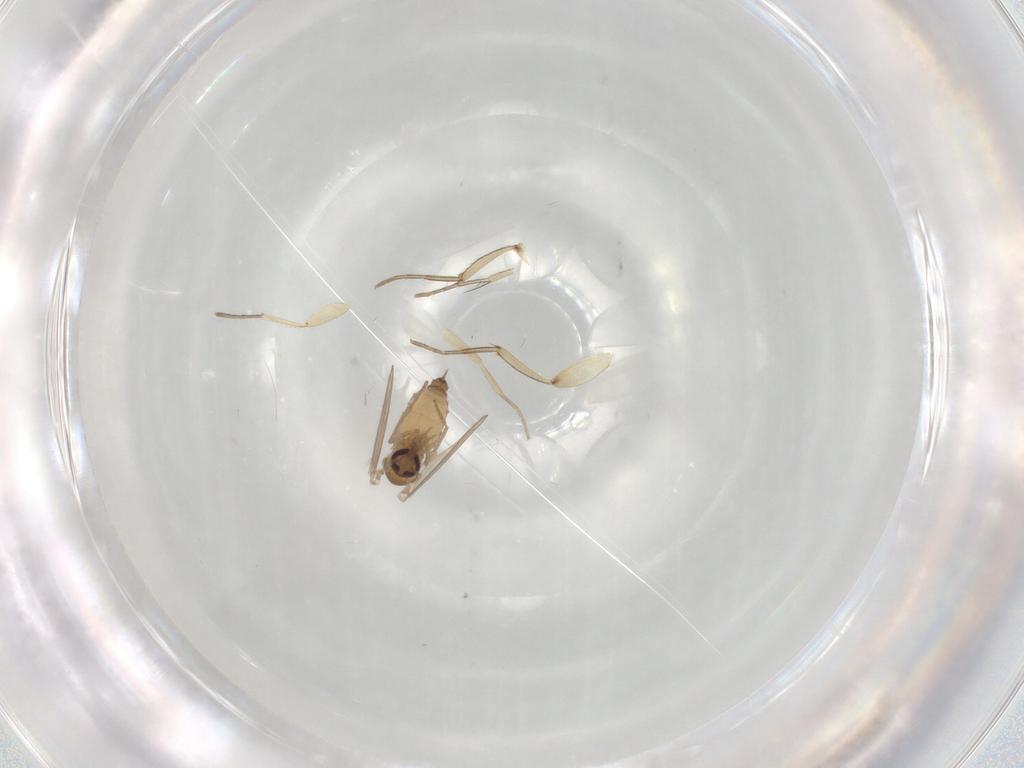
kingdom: Animalia
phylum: Arthropoda
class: Insecta
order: Diptera
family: Psychodidae
